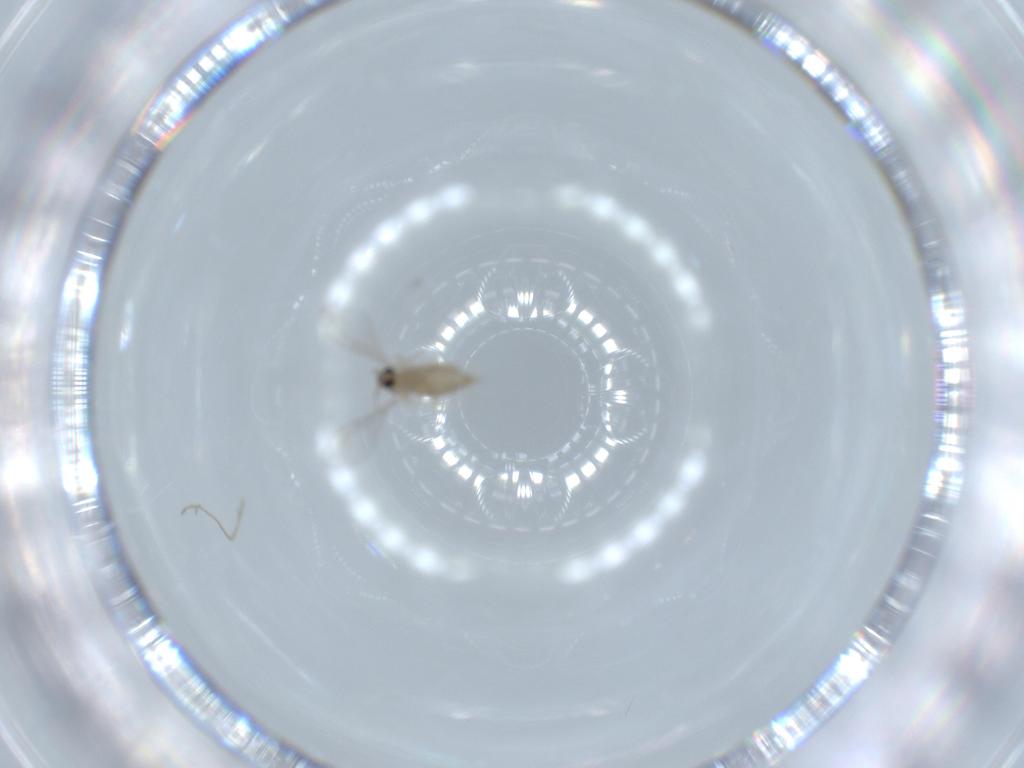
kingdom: Animalia
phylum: Arthropoda
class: Insecta
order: Diptera
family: Cecidomyiidae
